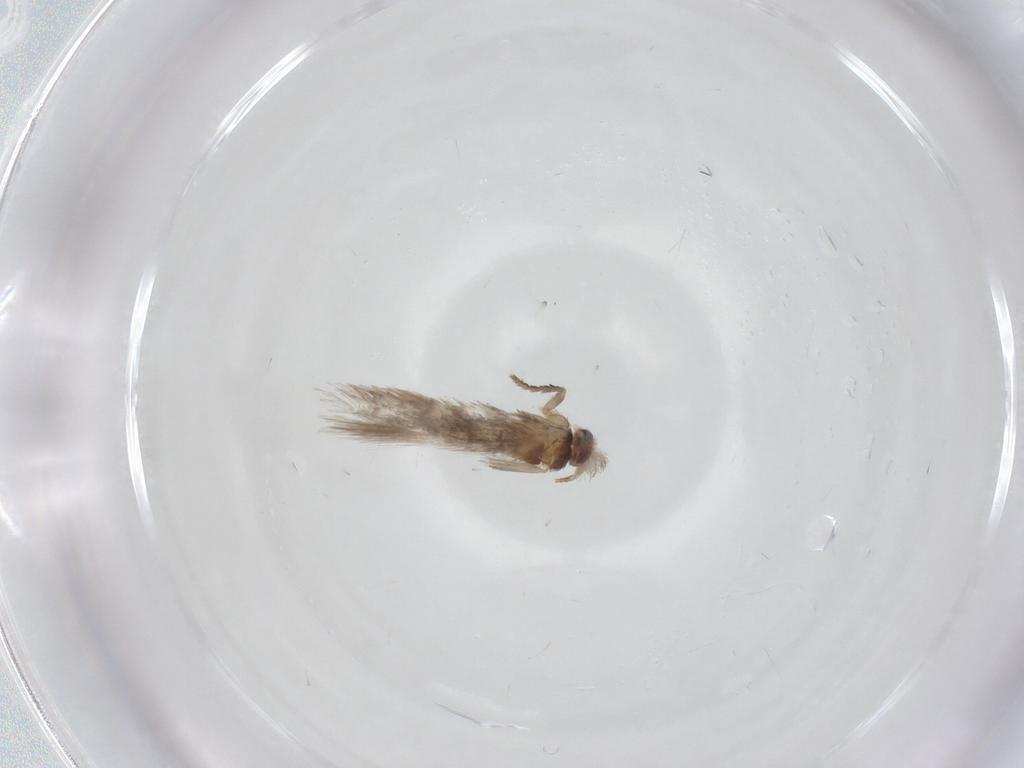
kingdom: Animalia
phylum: Arthropoda
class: Insecta
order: Lepidoptera
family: Nepticulidae
